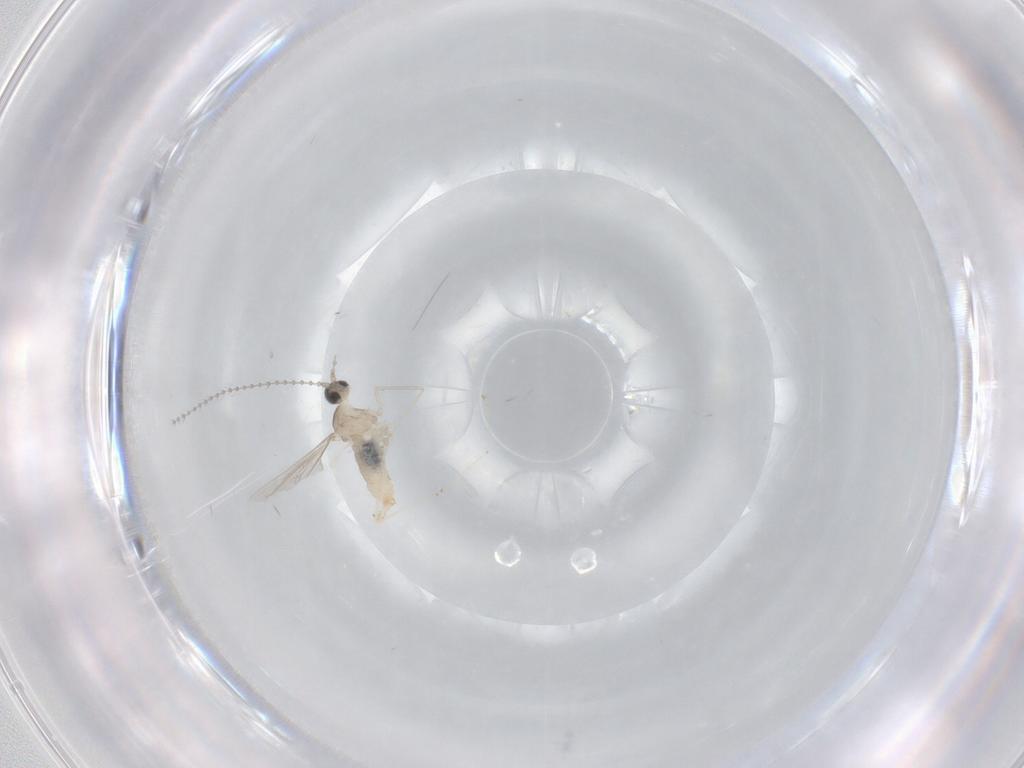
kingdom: Animalia
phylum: Arthropoda
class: Insecta
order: Diptera
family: Cecidomyiidae
